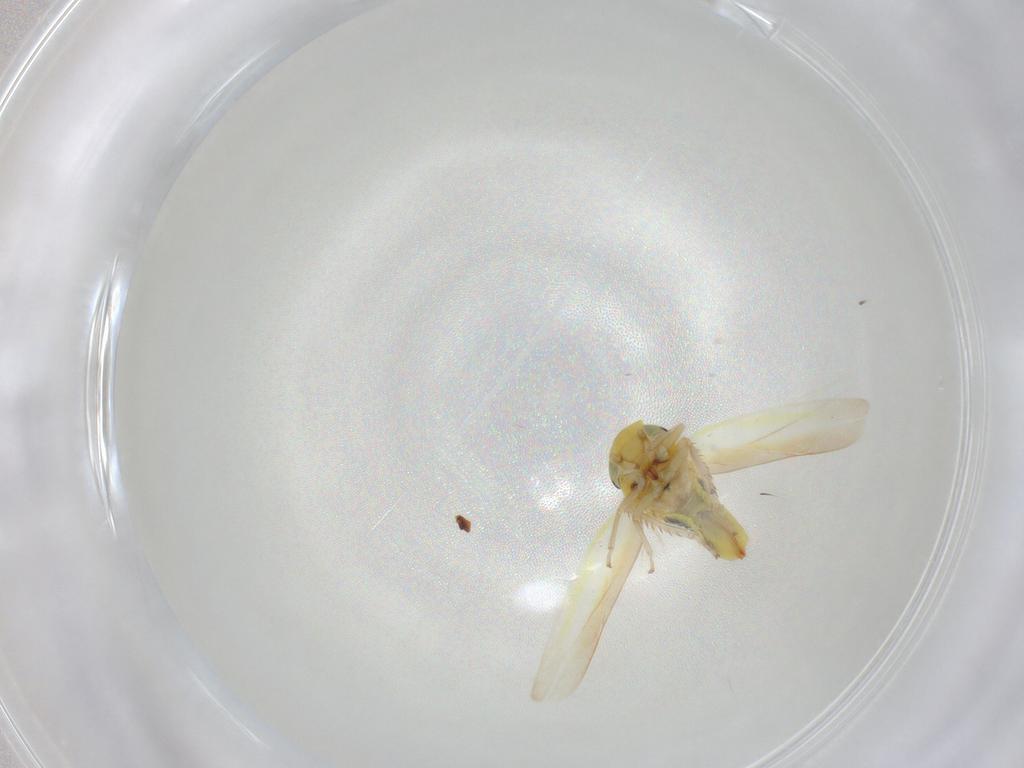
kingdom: Animalia
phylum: Arthropoda
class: Insecta
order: Hemiptera
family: Cicadellidae
